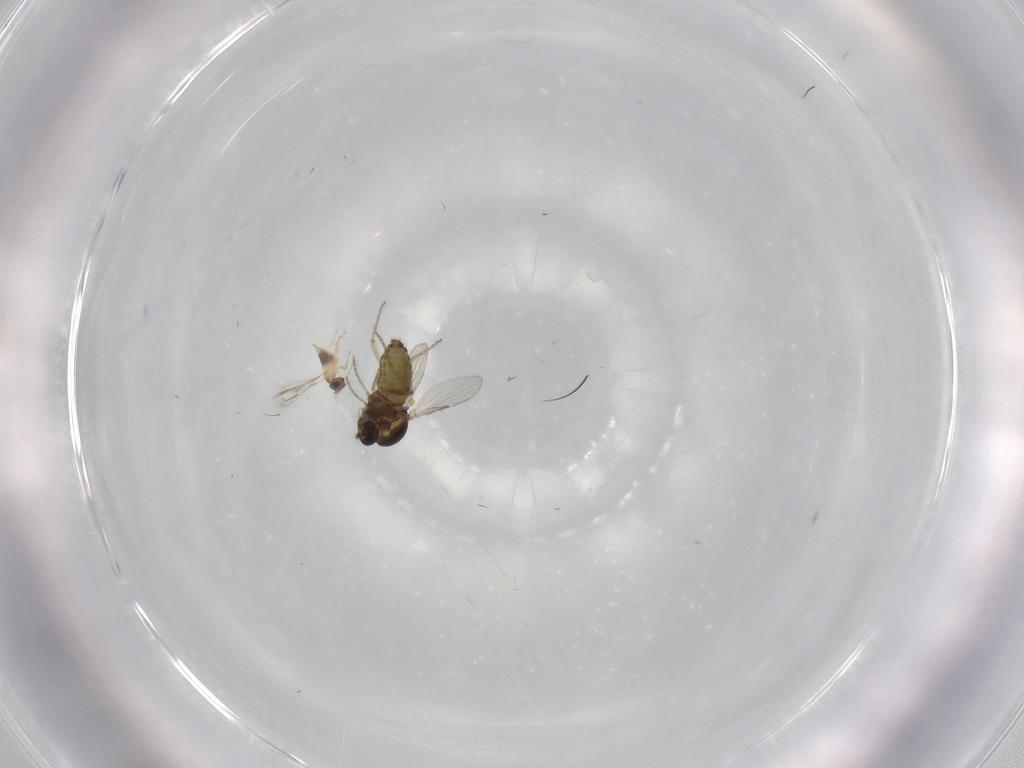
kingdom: Animalia
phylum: Arthropoda
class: Insecta
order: Hymenoptera
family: Mymaridae
